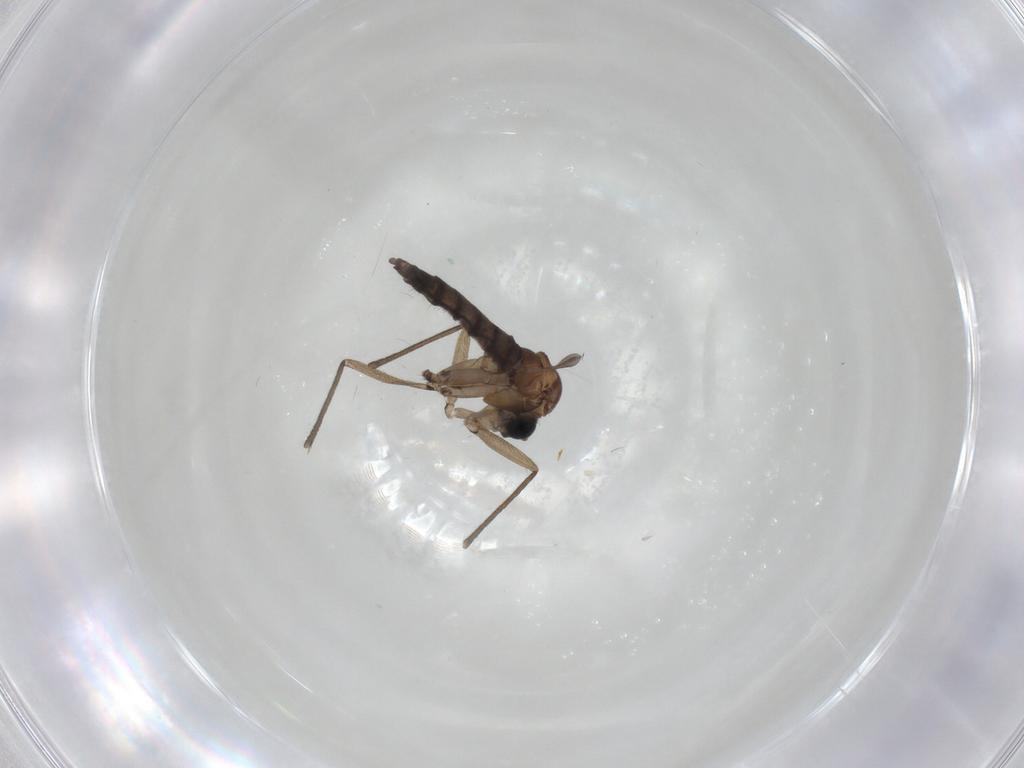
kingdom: Animalia
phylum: Arthropoda
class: Insecta
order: Diptera
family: Sciaridae
